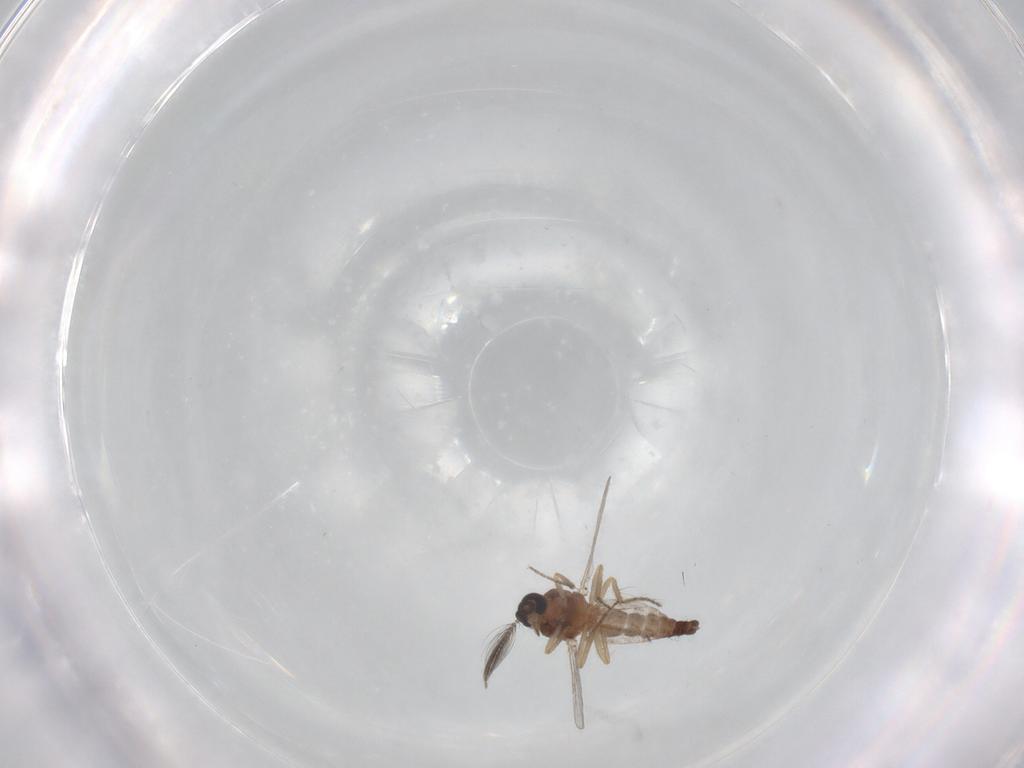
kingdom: Animalia
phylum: Arthropoda
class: Insecta
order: Diptera
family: Ceratopogonidae
